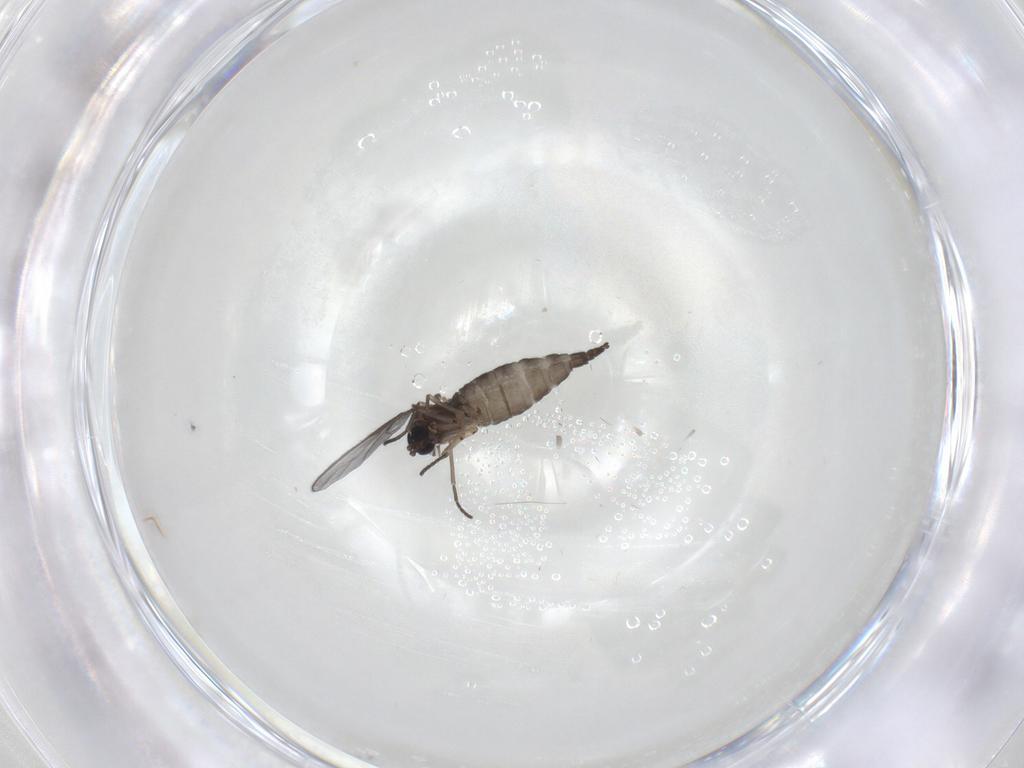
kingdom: Animalia
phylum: Arthropoda
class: Insecta
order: Diptera
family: Sciaridae
